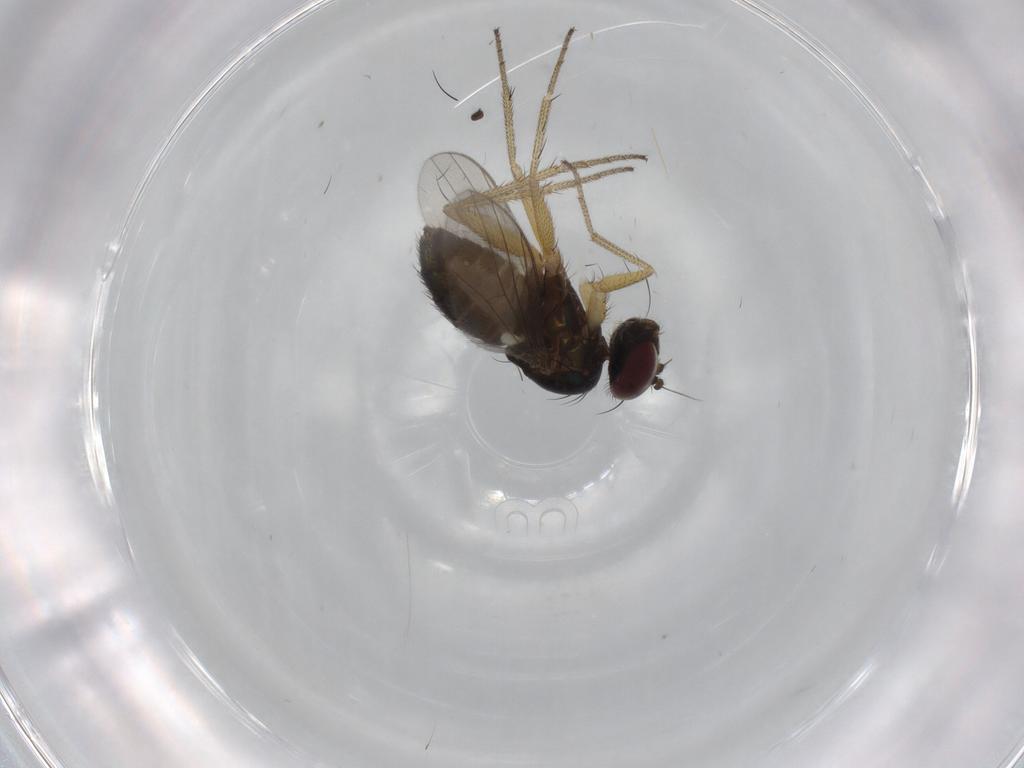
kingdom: Animalia
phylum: Arthropoda
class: Insecta
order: Diptera
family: Dolichopodidae
